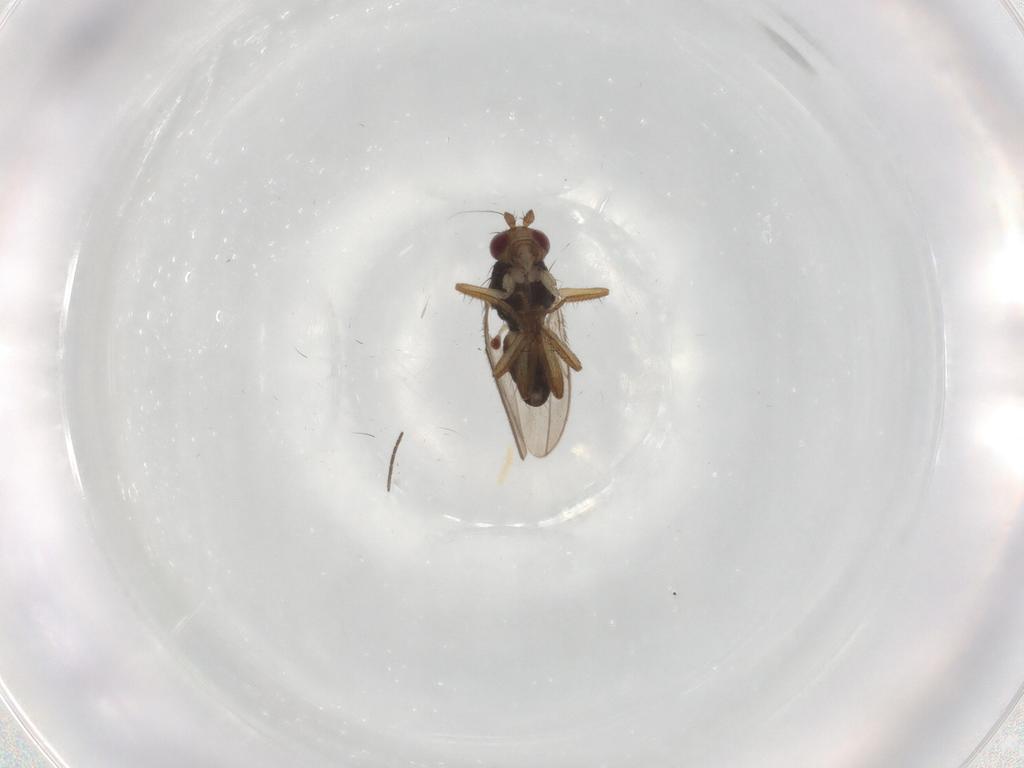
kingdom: Animalia
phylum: Arthropoda
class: Insecta
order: Diptera
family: Sphaeroceridae
